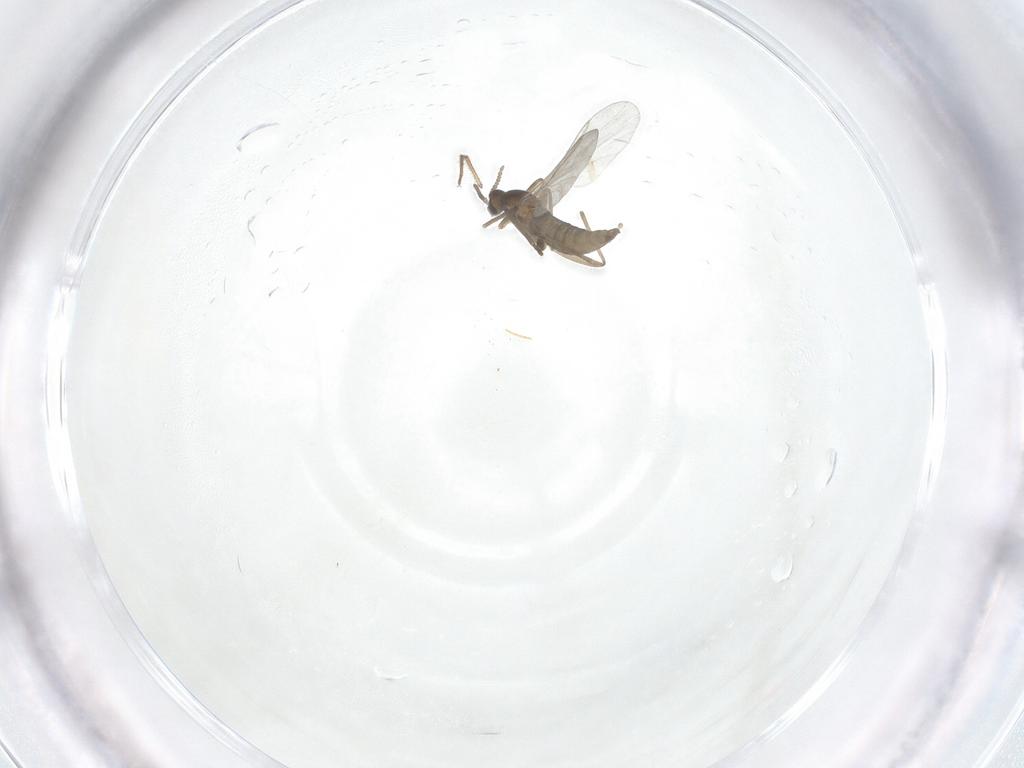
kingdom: Animalia
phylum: Arthropoda
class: Insecta
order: Diptera
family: Cecidomyiidae
